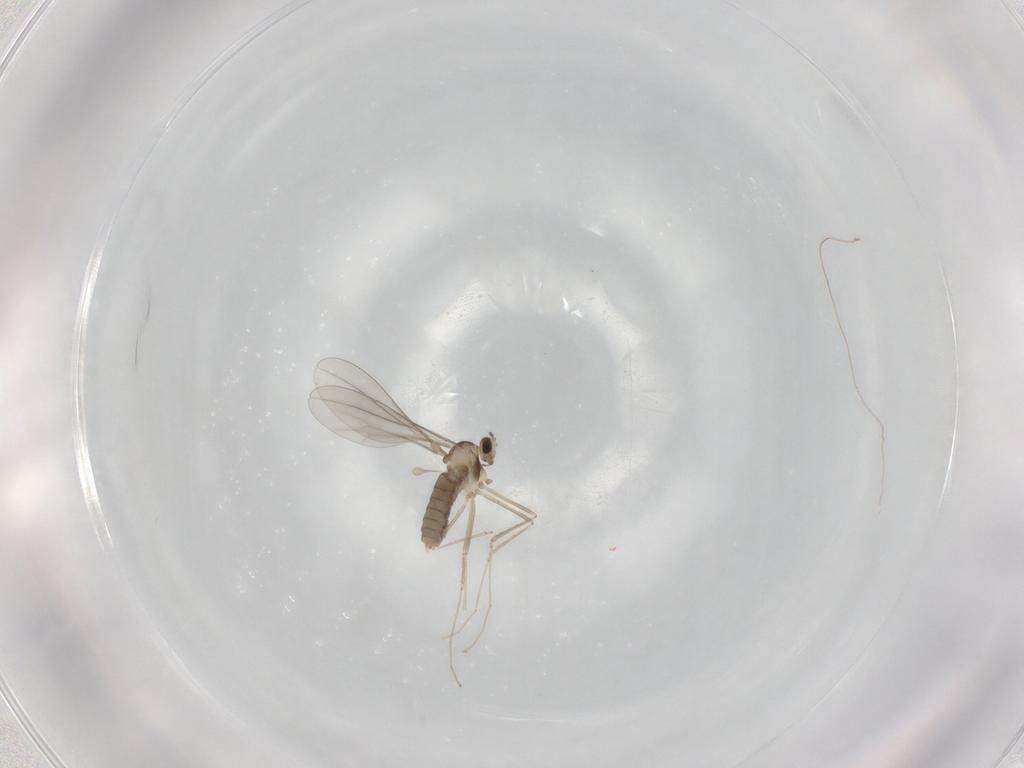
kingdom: Animalia
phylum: Arthropoda
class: Insecta
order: Diptera
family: Cecidomyiidae
